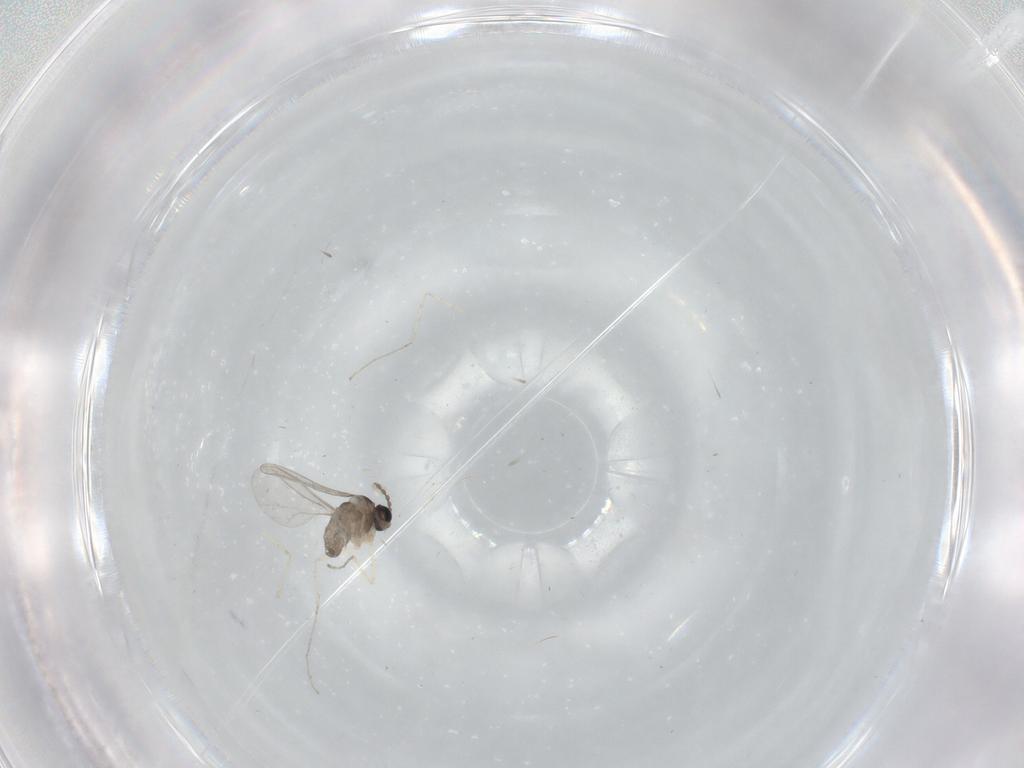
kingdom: Animalia
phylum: Arthropoda
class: Insecta
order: Diptera
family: Cecidomyiidae
